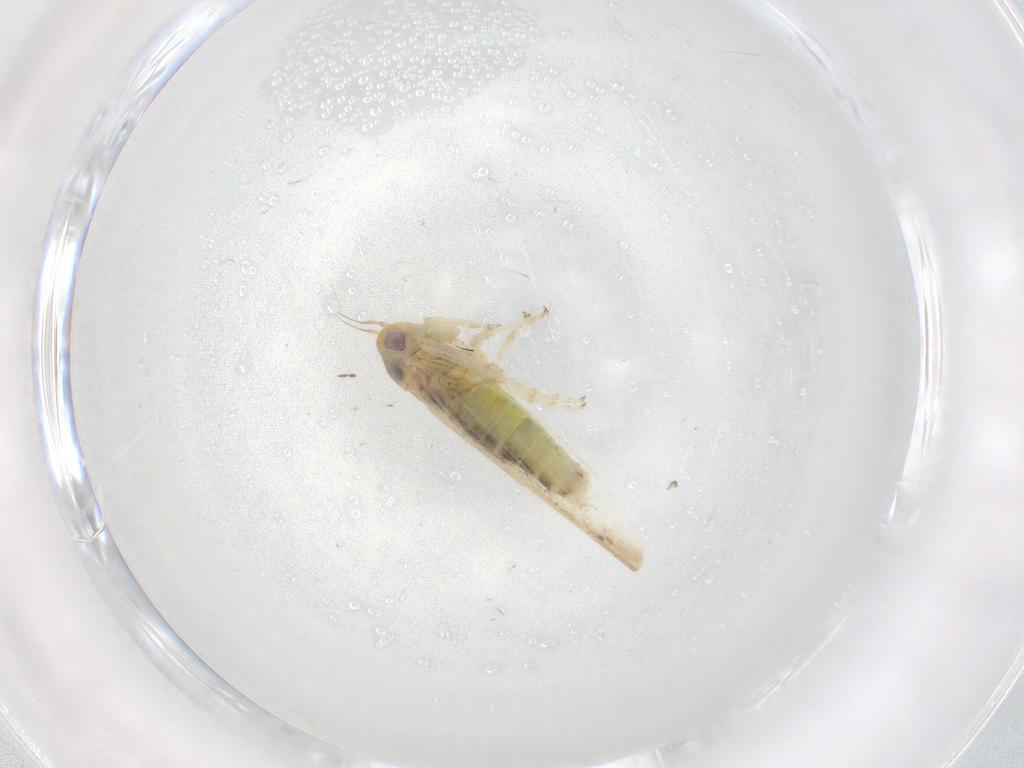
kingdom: Animalia
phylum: Arthropoda
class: Insecta
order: Hemiptera
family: Cicadellidae
